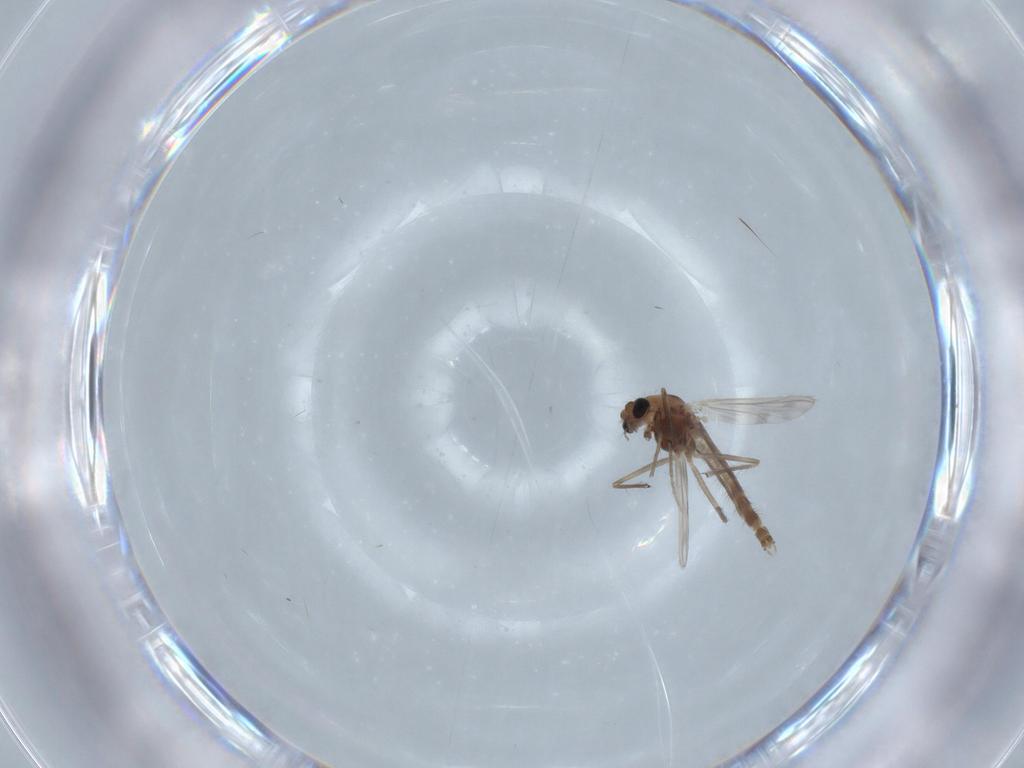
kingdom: Animalia
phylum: Arthropoda
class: Insecta
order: Diptera
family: Chironomidae
